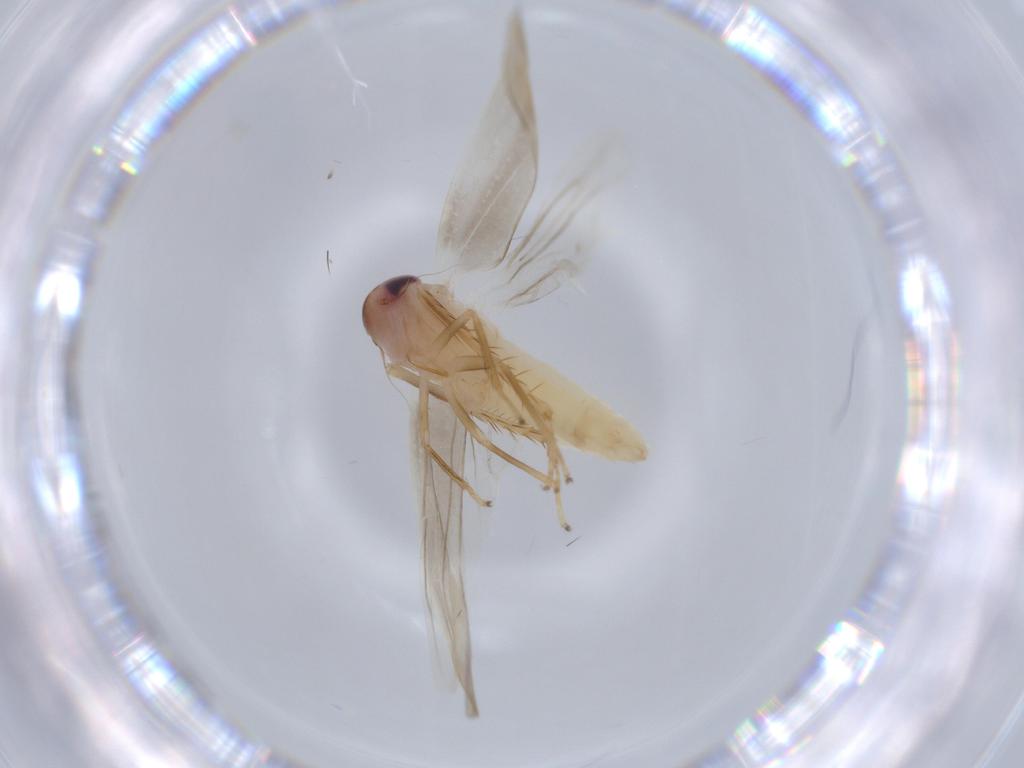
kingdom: Animalia
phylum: Arthropoda
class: Insecta
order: Hemiptera
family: Cicadellidae
